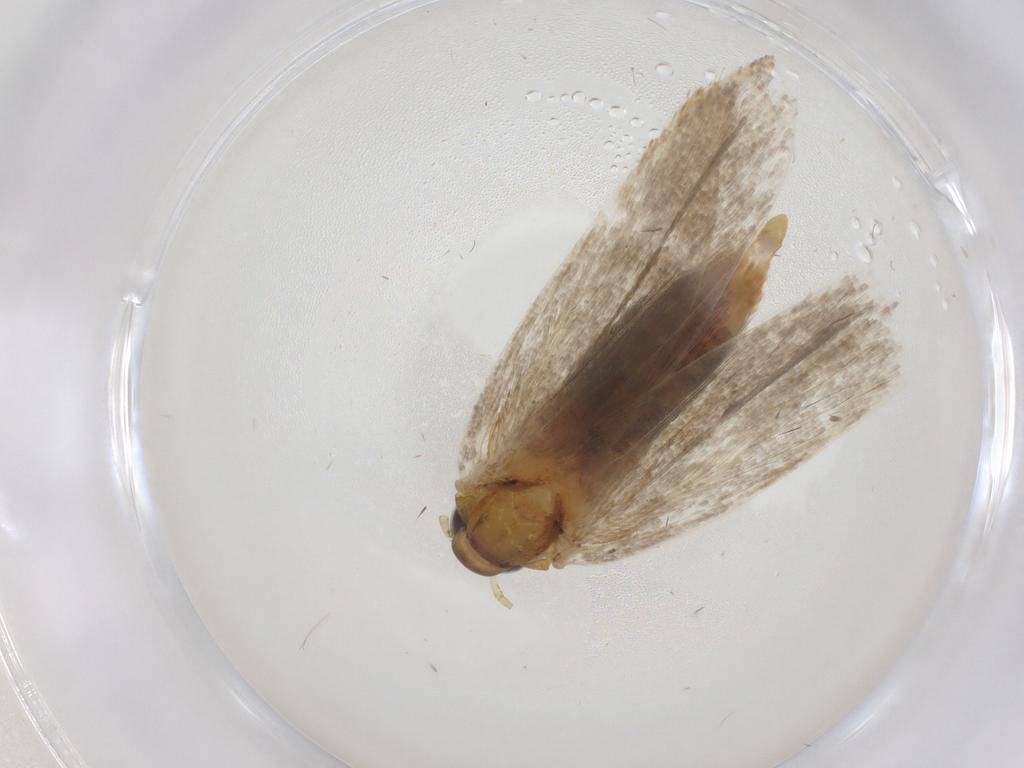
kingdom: Animalia
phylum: Arthropoda
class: Insecta
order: Lepidoptera
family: Oecophoridae
